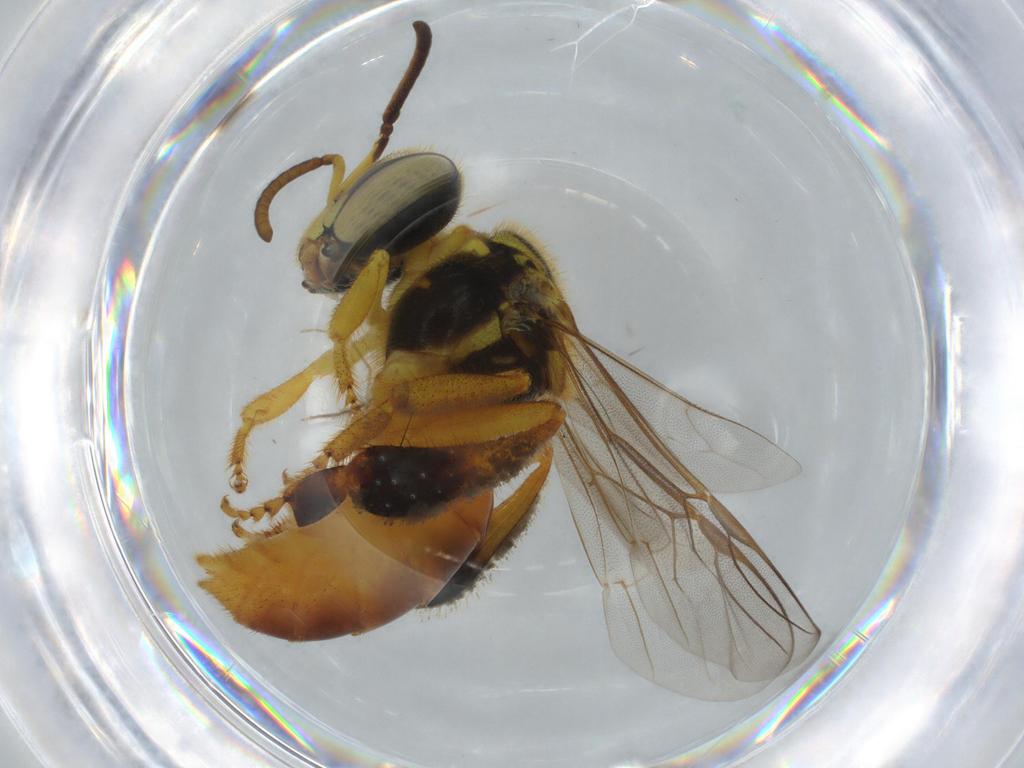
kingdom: Animalia
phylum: Arthropoda
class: Insecta
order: Hymenoptera
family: Apidae
